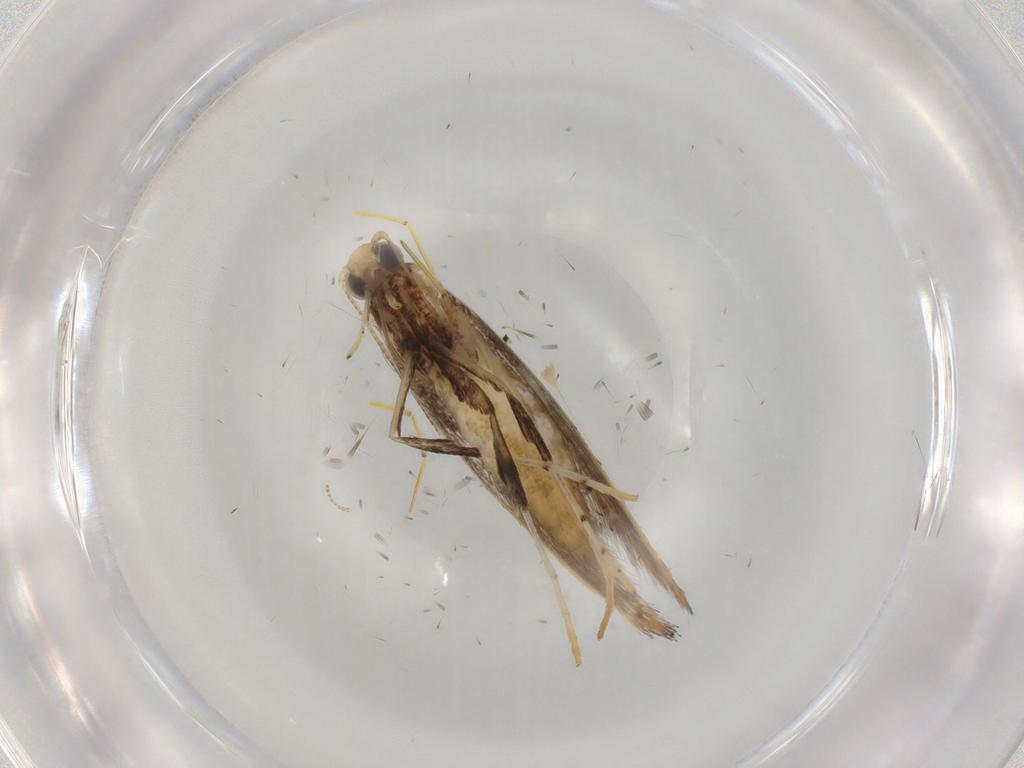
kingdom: Animalia
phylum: Arthropoda
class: Insecta
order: Lepidoptera
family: Gracillariidae
